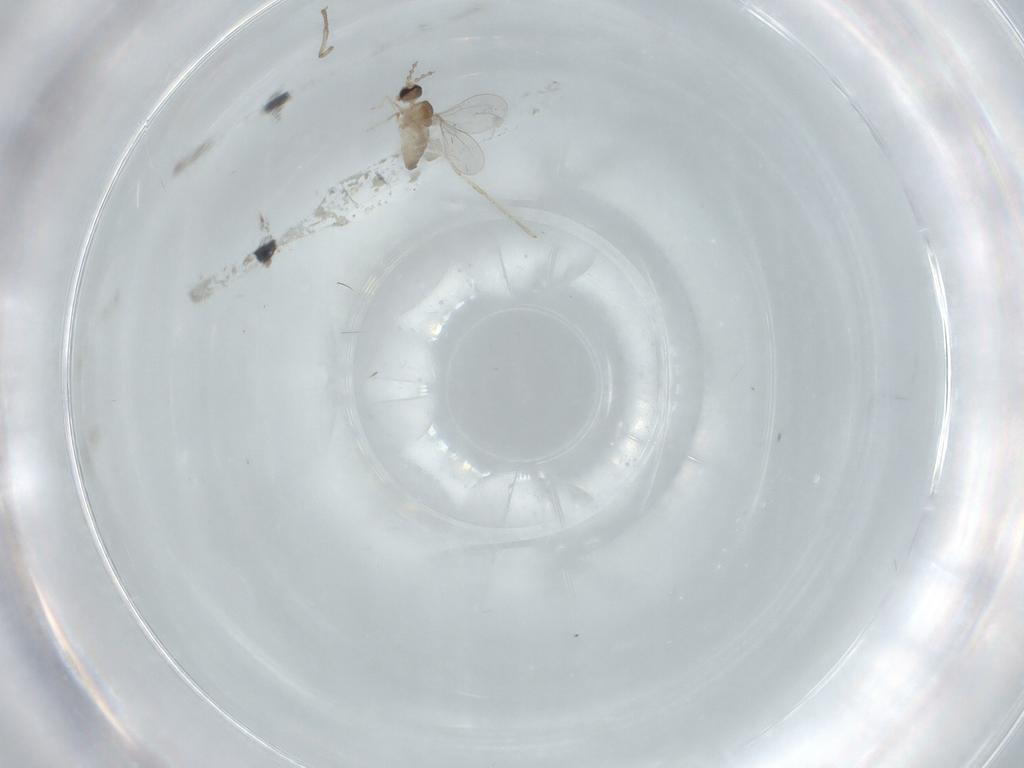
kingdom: Animalia
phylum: Arthropoda
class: Insecta
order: Diptera
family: Cecidomyiidae
